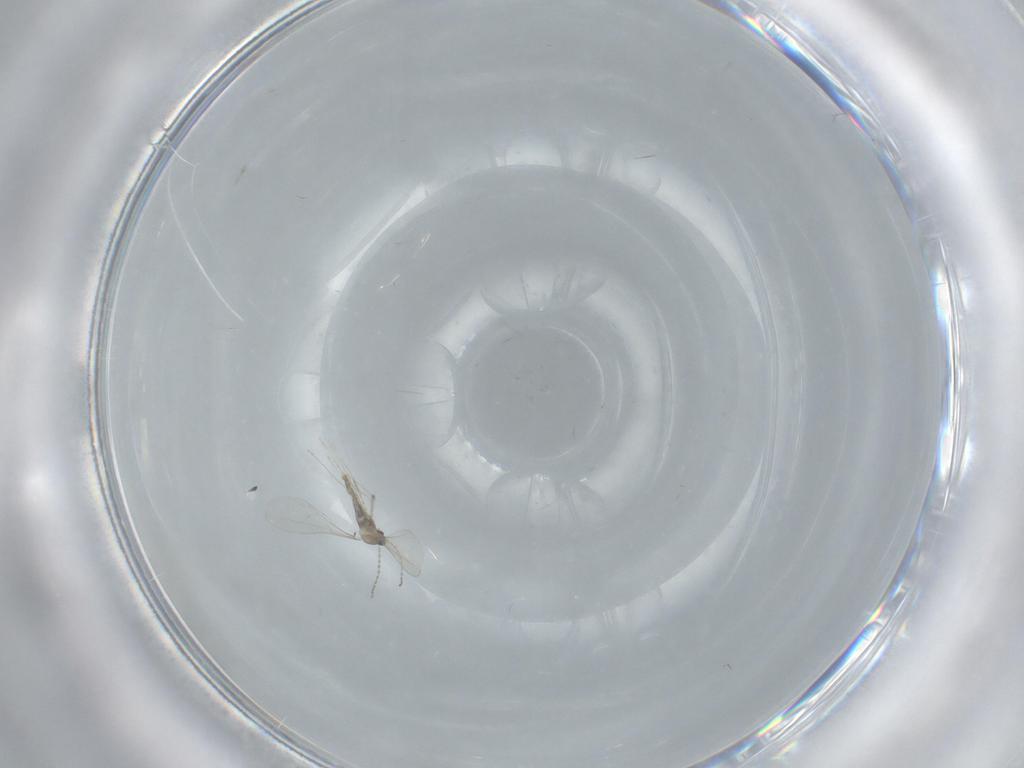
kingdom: Animalia
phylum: Arthropoda
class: Insecta
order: Diptera
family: Agromyzidae
